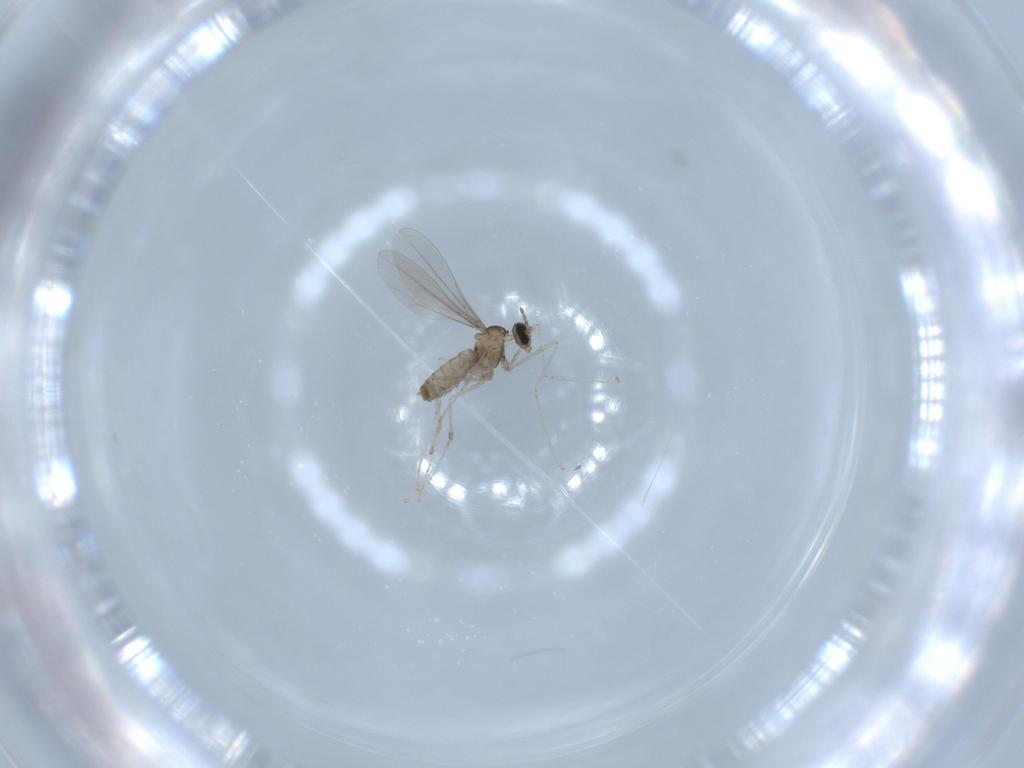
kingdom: Animalia
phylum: Arthropoda
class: Insecta
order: Diptera
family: Cecidomyiidae
